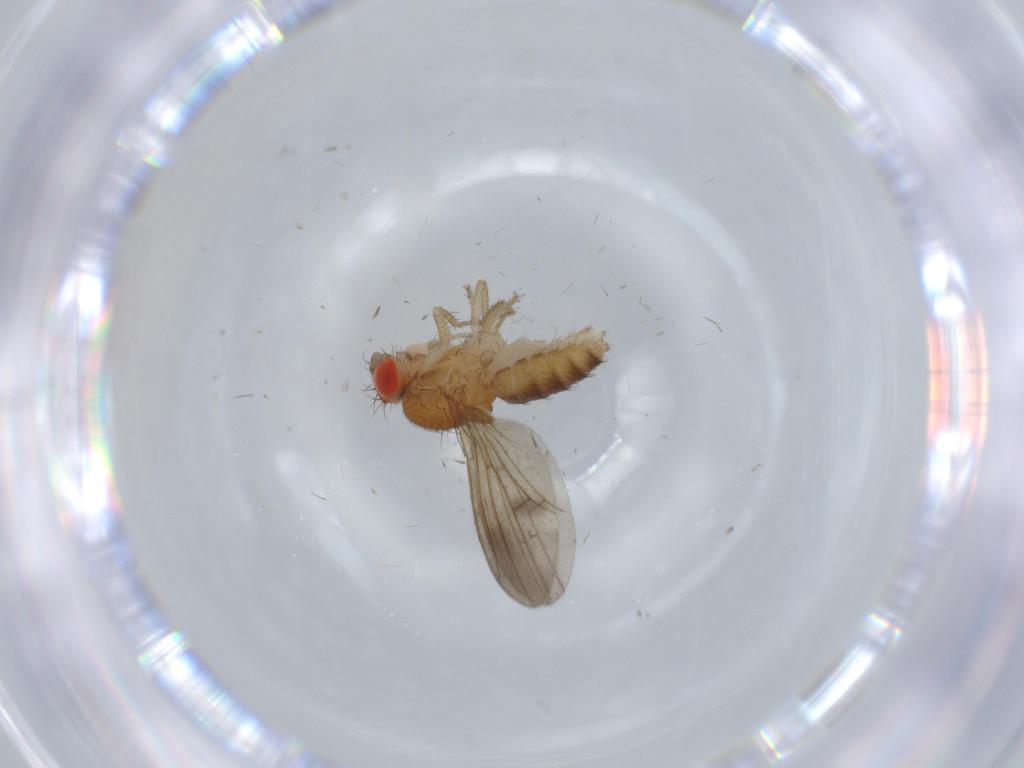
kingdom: Animalia
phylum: Arthropoda
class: Insecta
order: Diptera
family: Drosophilidae
